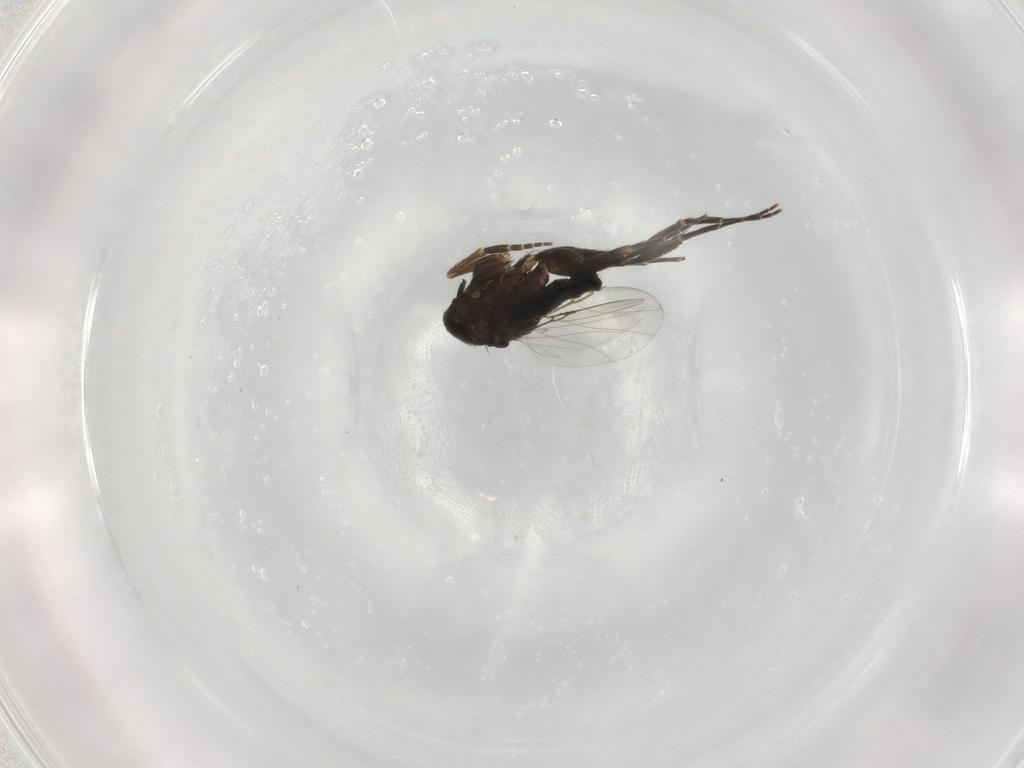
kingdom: Animalia
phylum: Arthropoda
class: Insecta
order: Diptera
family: Phoridae
